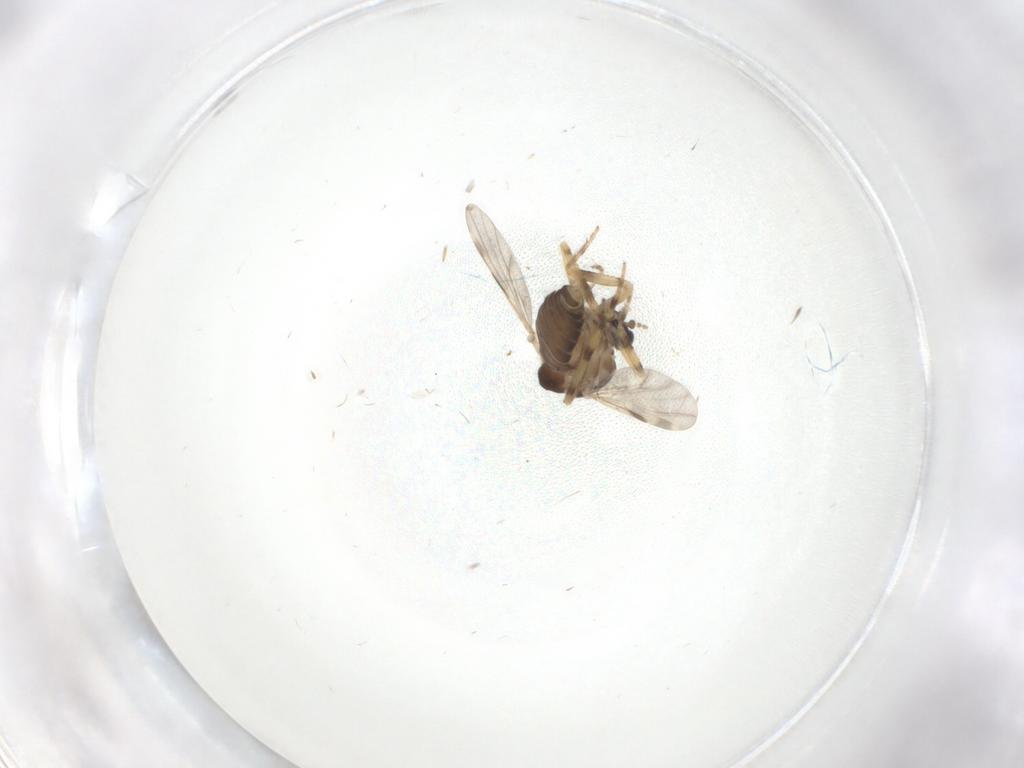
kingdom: Animalia
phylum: Arthropoda
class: Insecta
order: Diptera
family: Ceratopogonidae
